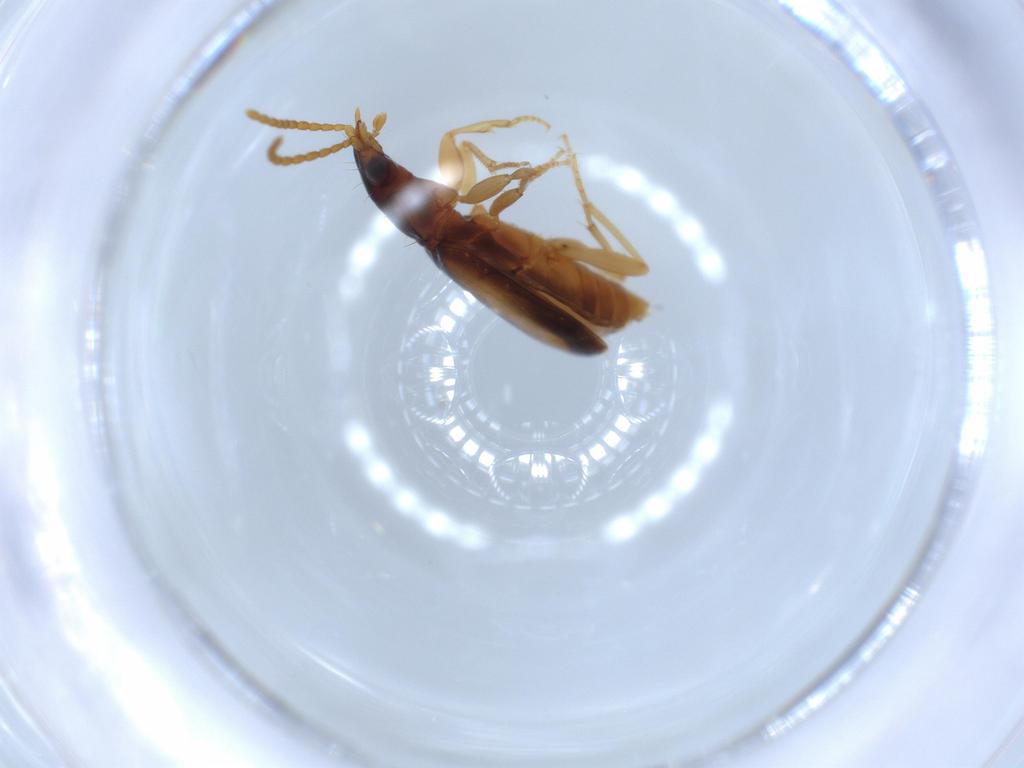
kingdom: Animalia
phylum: Arthropoda
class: Insecta
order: Coleoptera
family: Carabidae
